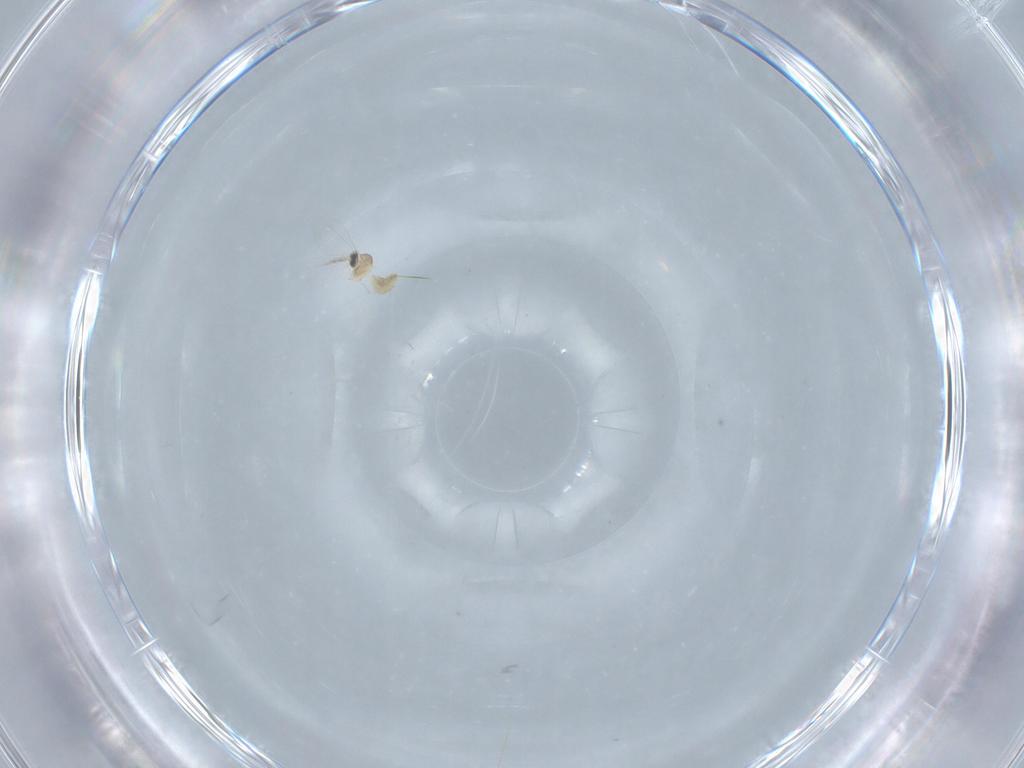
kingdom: Animalia
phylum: Arthropoda
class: Insecta
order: Diptera
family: Cecidomyiidae
